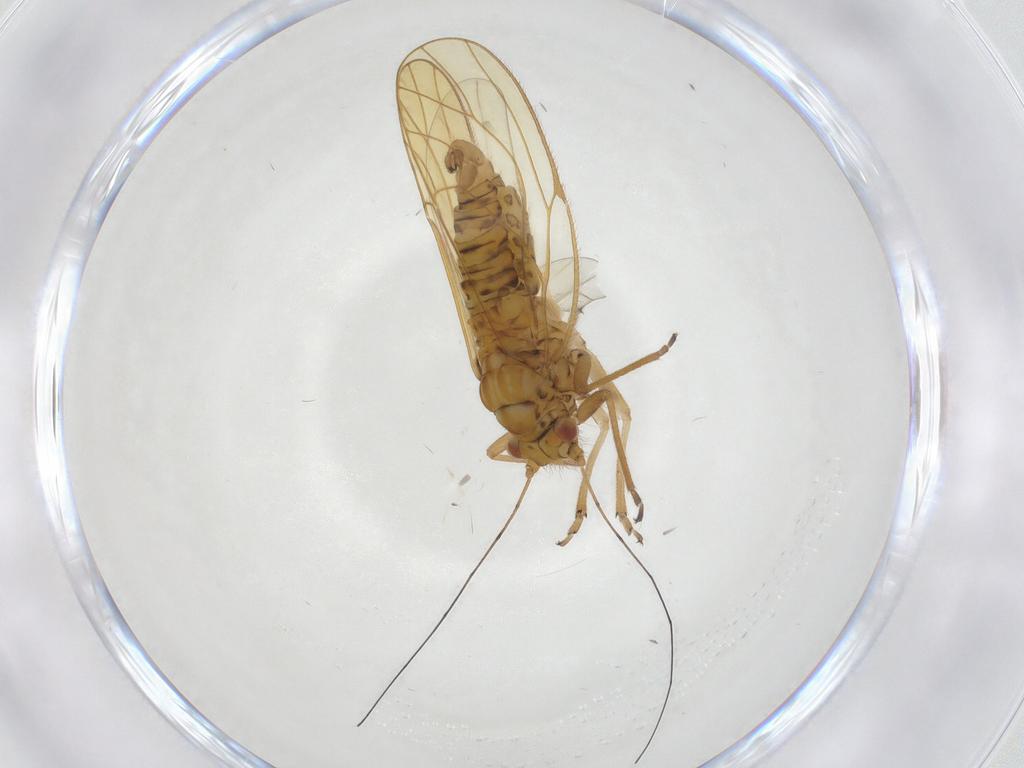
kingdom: Animalia
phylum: Arthropoda
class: Insecta
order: Hemiptera
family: Psyllidae
